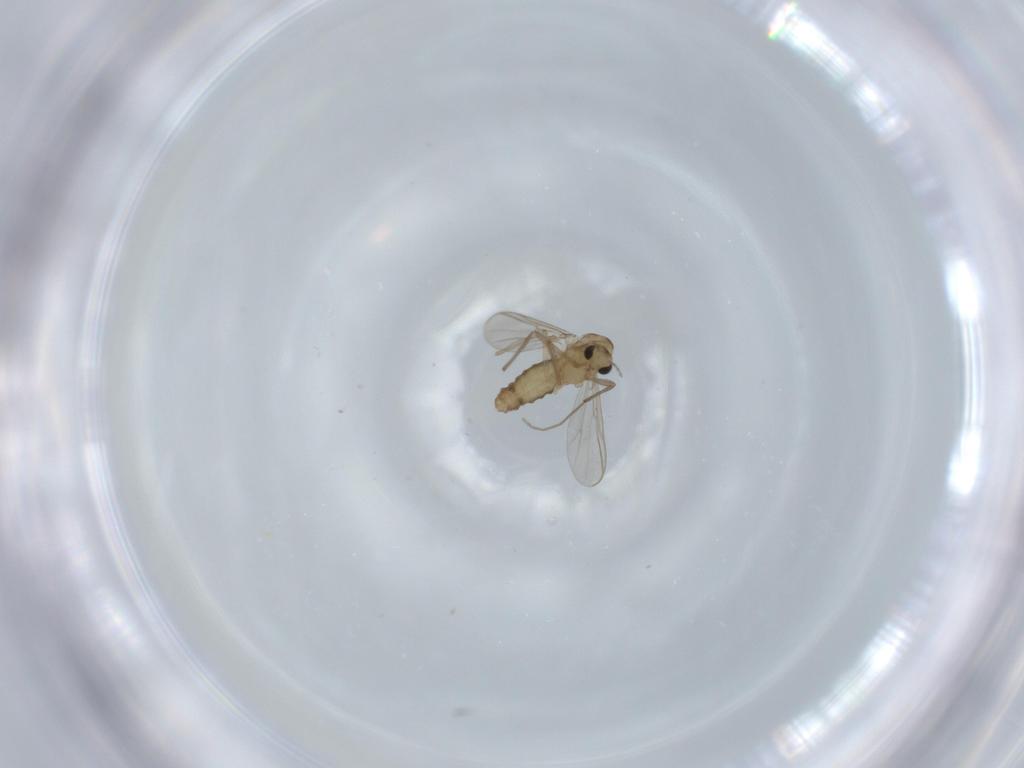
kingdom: Animalia
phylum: Arthropoda
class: Insecta
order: Diptera
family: Chironomidae
